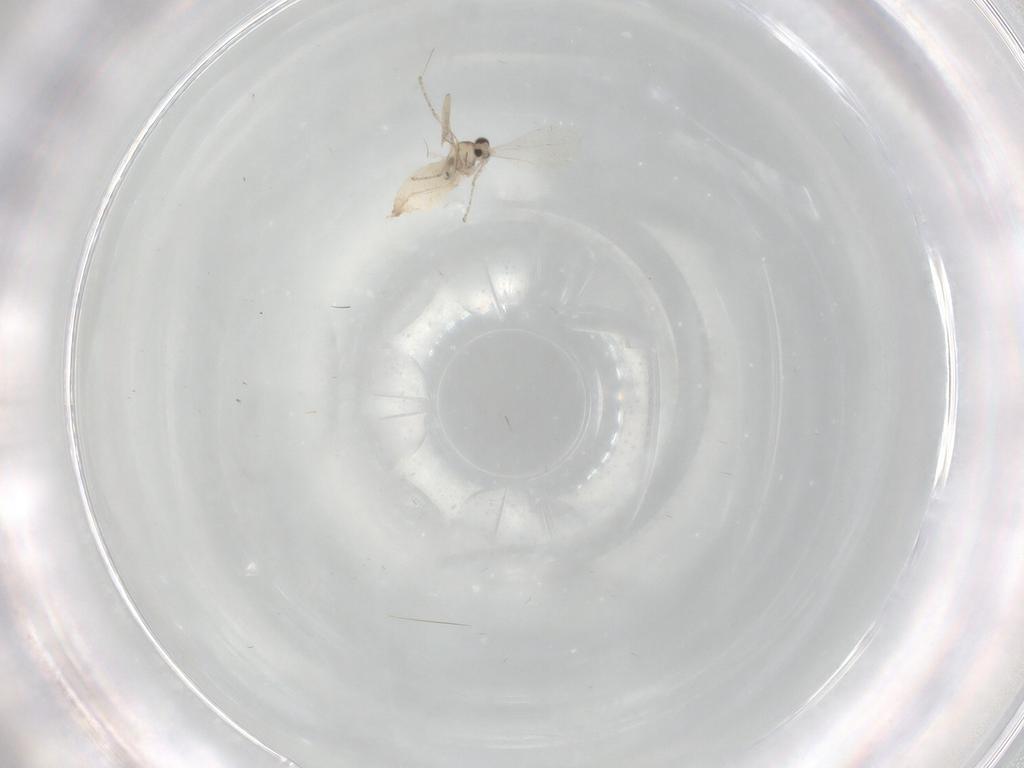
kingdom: Animalia
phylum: Arthropoda
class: Insecta
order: Diptera
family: Cecidomyiidae
